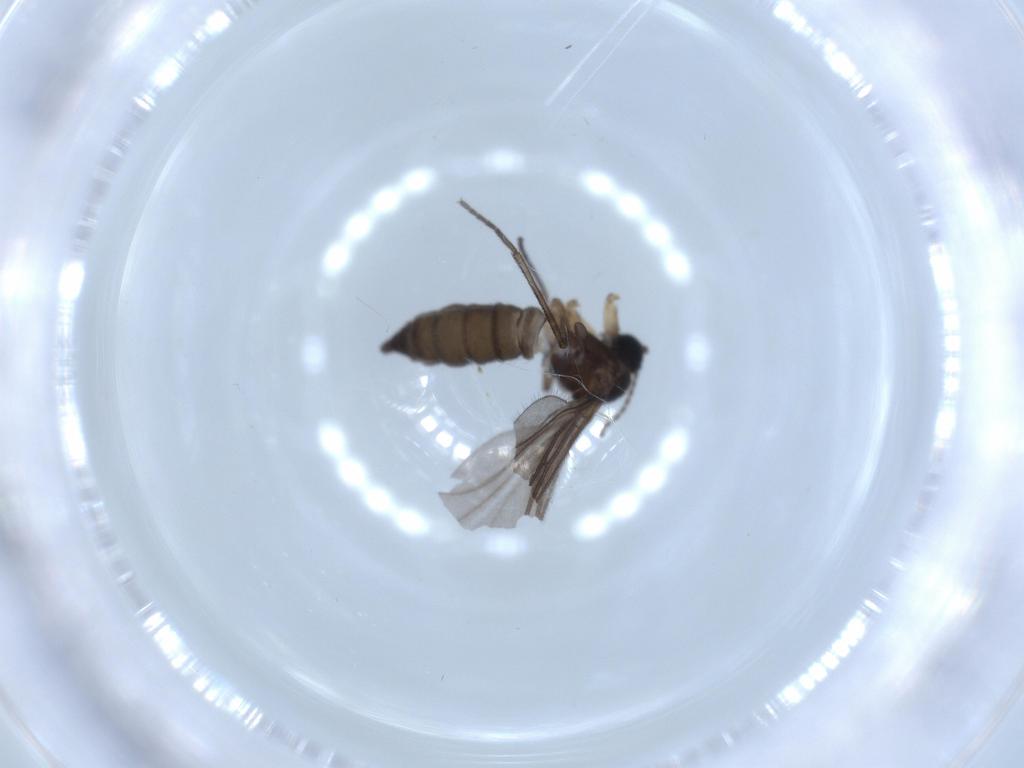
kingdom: Animalia
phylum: Arthropoda
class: Insecta
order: Diptera
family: Sciaridae
